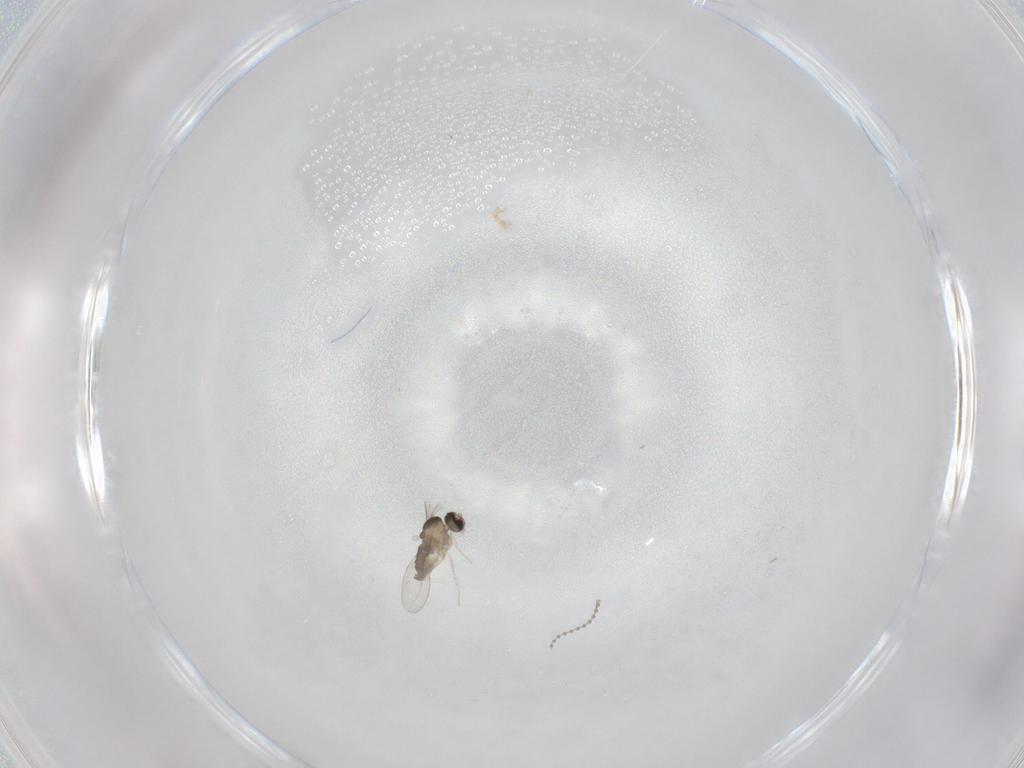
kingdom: Animalia
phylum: Arthropoda
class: Insecta
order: Diptera
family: Cecidomyiidae
